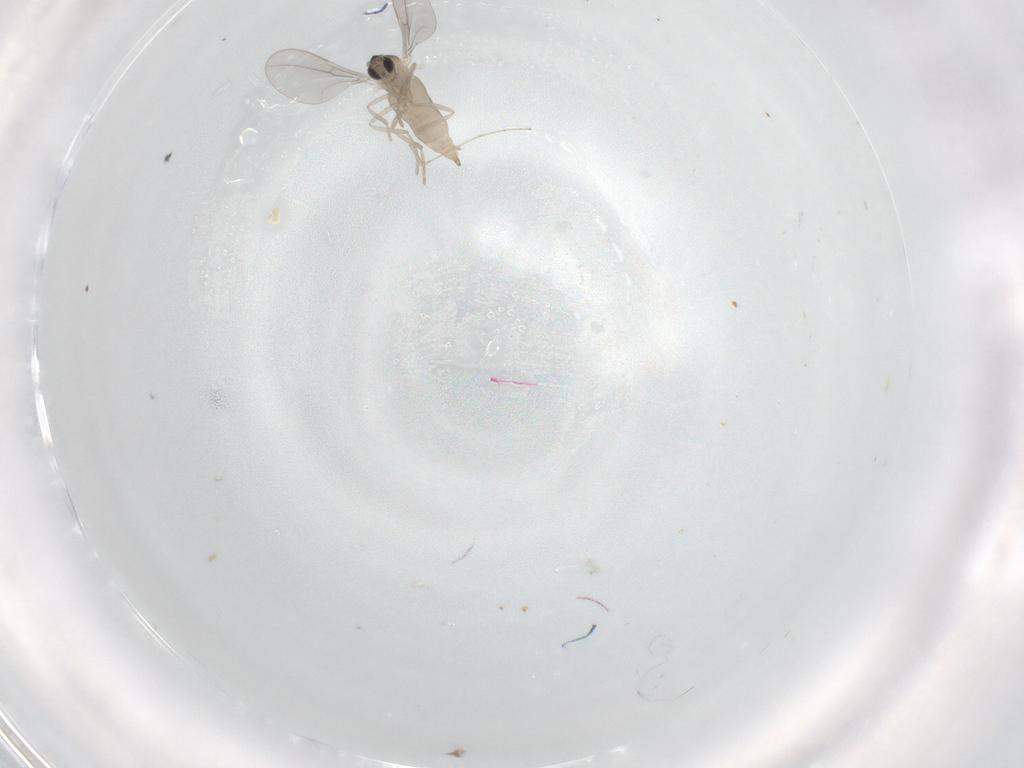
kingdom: Animalia
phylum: Arthropoda
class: Insecta
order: Diptera
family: Cecidomyiidae
